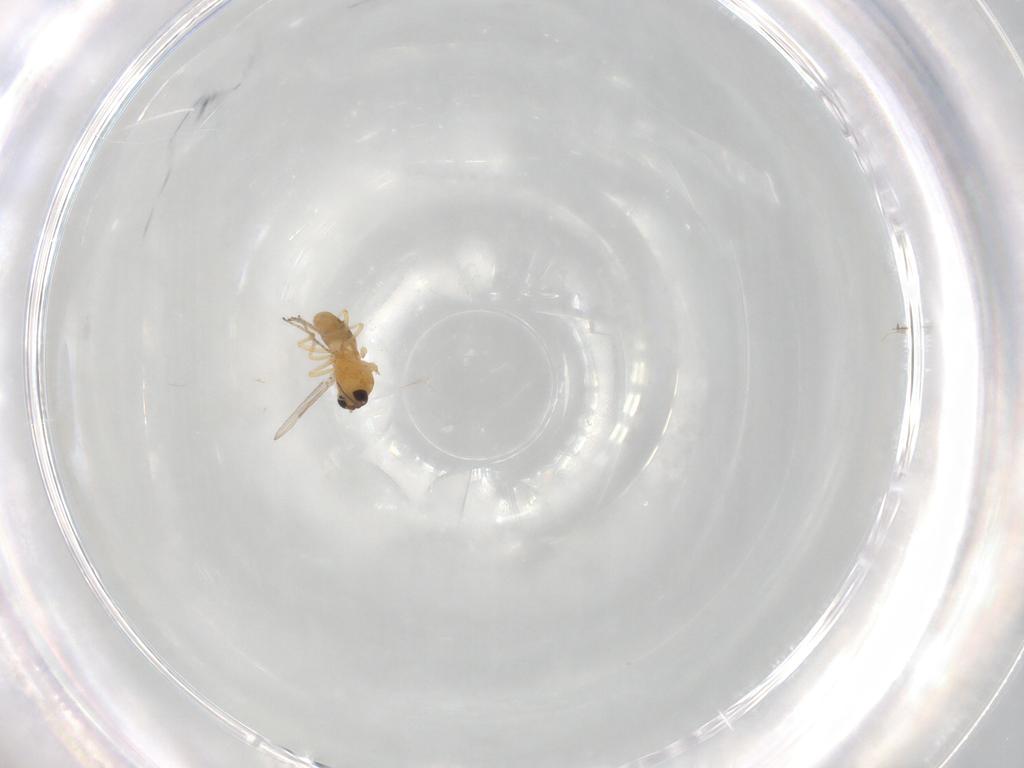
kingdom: Animalia
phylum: Arthropoda
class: Insecta
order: Diptera
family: Ceratopogonidae
